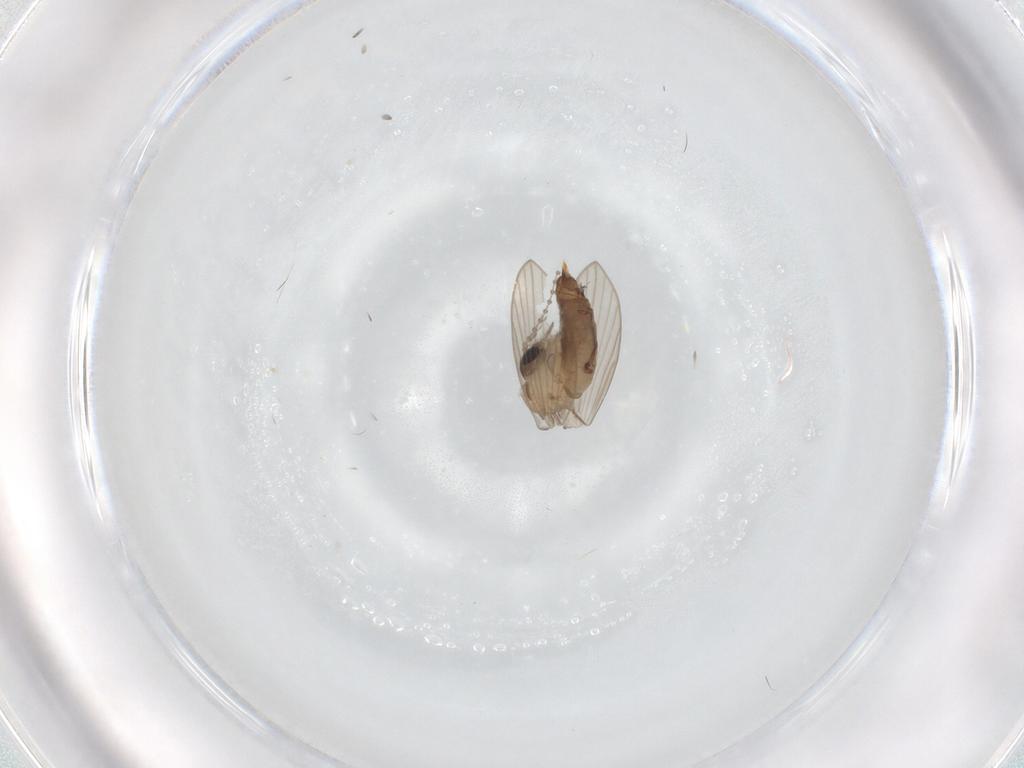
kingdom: Animalia
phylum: Arthropoda
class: Insecta
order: Diptera
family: Psychodidae
